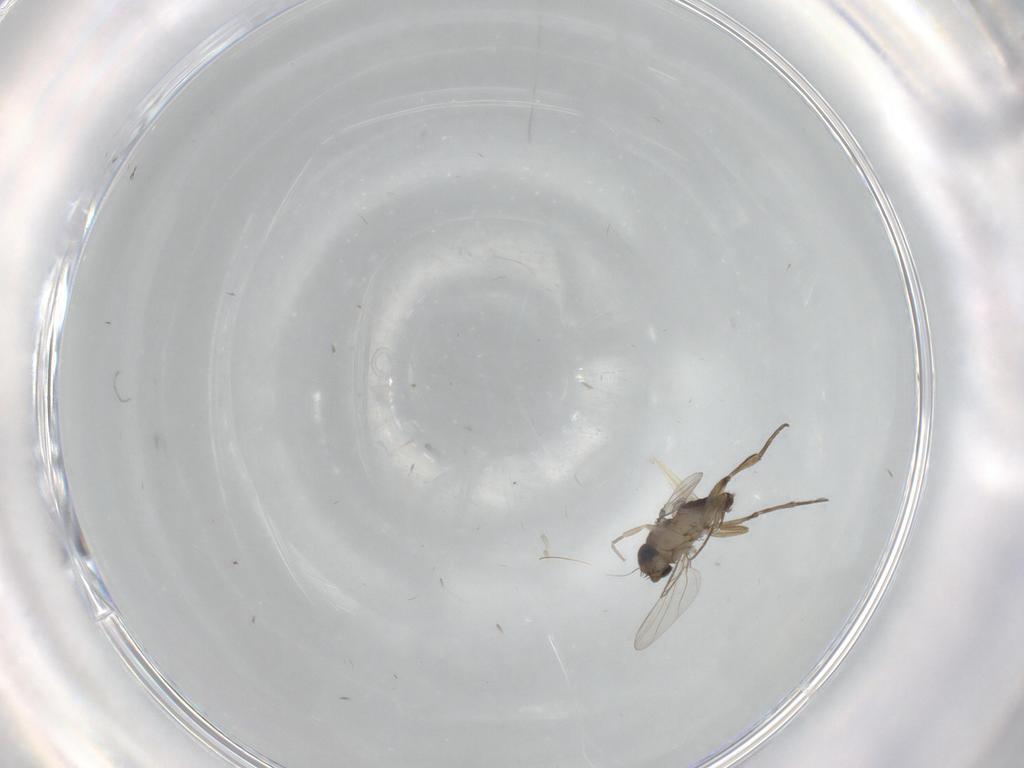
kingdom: Animalia
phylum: Arthropoda
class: Insecta
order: Diptera
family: Phoridae
